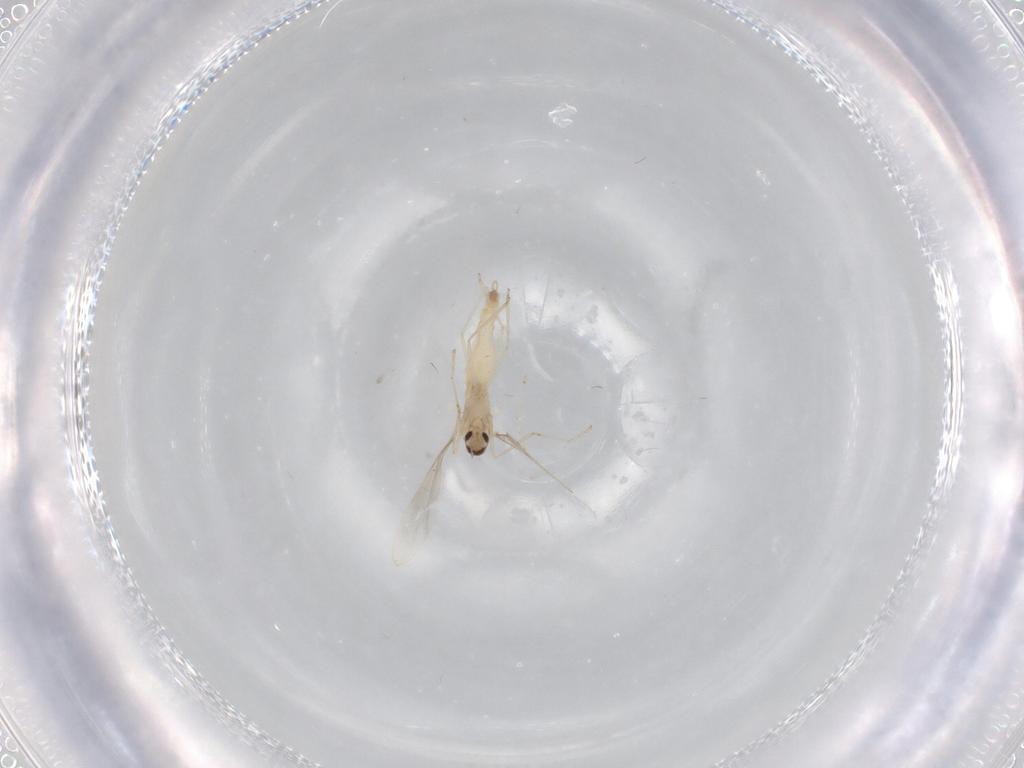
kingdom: Animalia
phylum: Arthropoda
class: Insecta
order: Diptera
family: Cecidomyiidae
